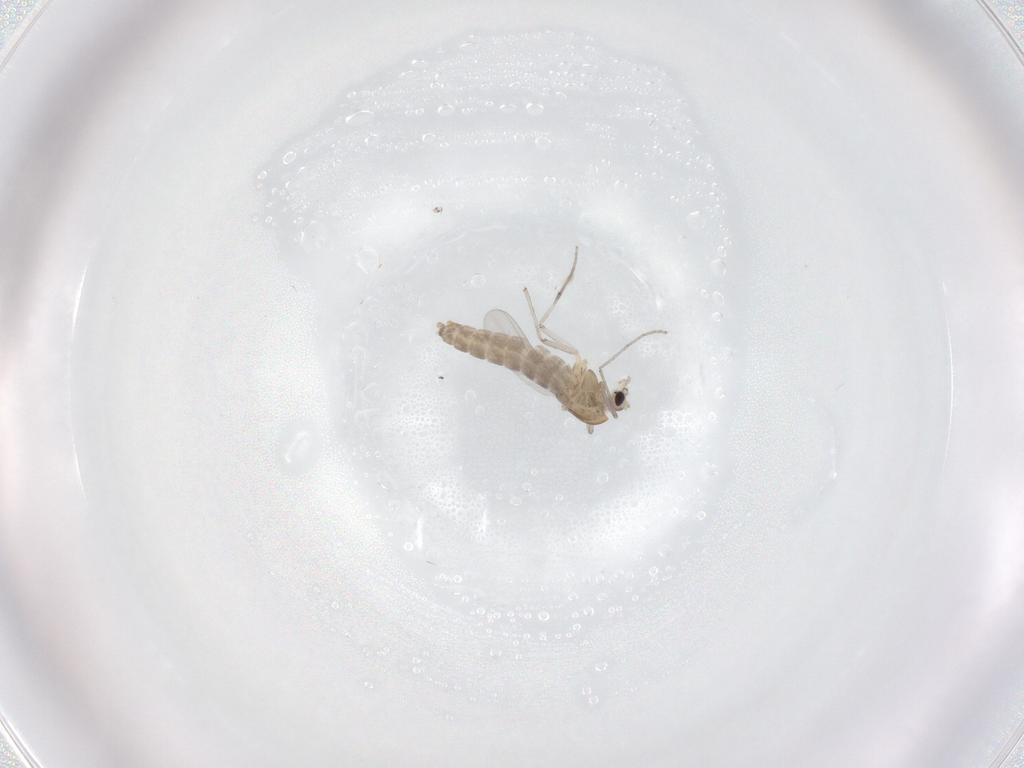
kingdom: Animalia
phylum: Arthropoda
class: Insecta
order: Diptera
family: Chironomidae
